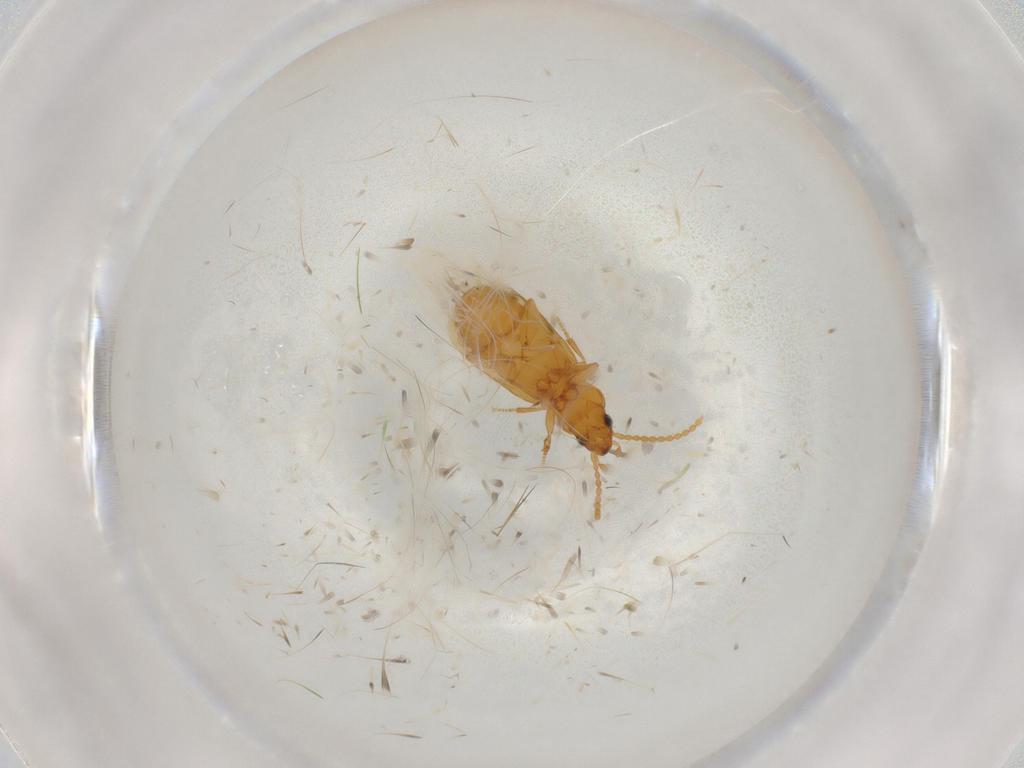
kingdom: Animalia
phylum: Arthropoda
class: Insecta
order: Coleoptera
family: Carabidae
